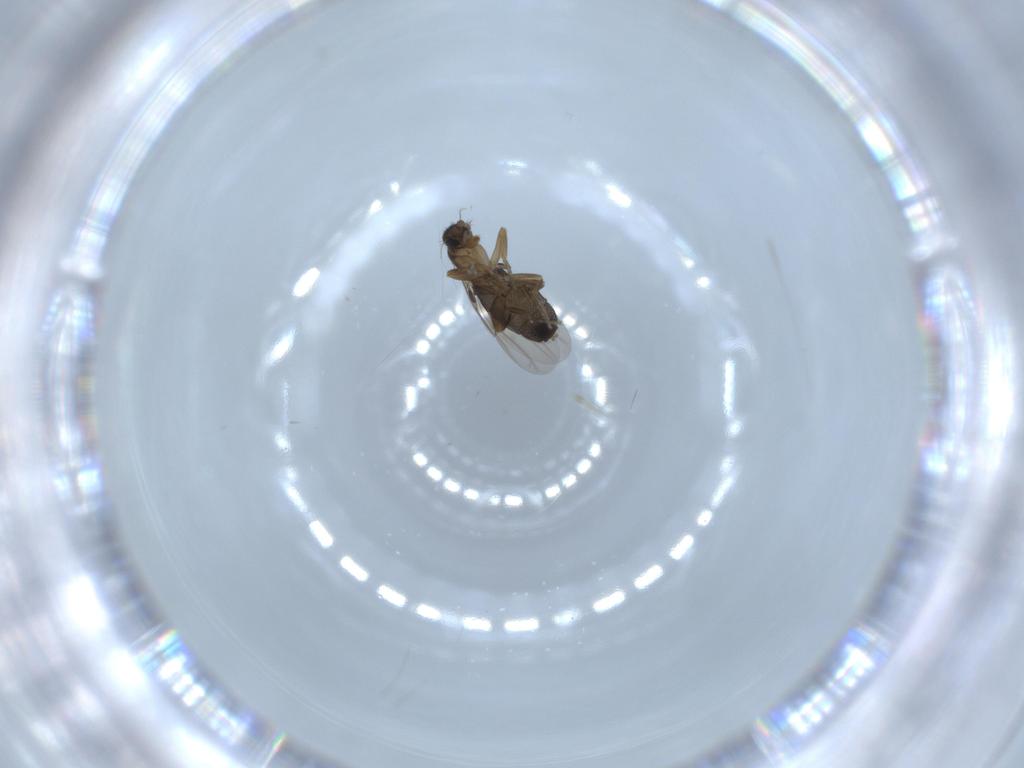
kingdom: Animalia
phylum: Arthropoda
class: Insecta
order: Diptera
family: Phoridae
